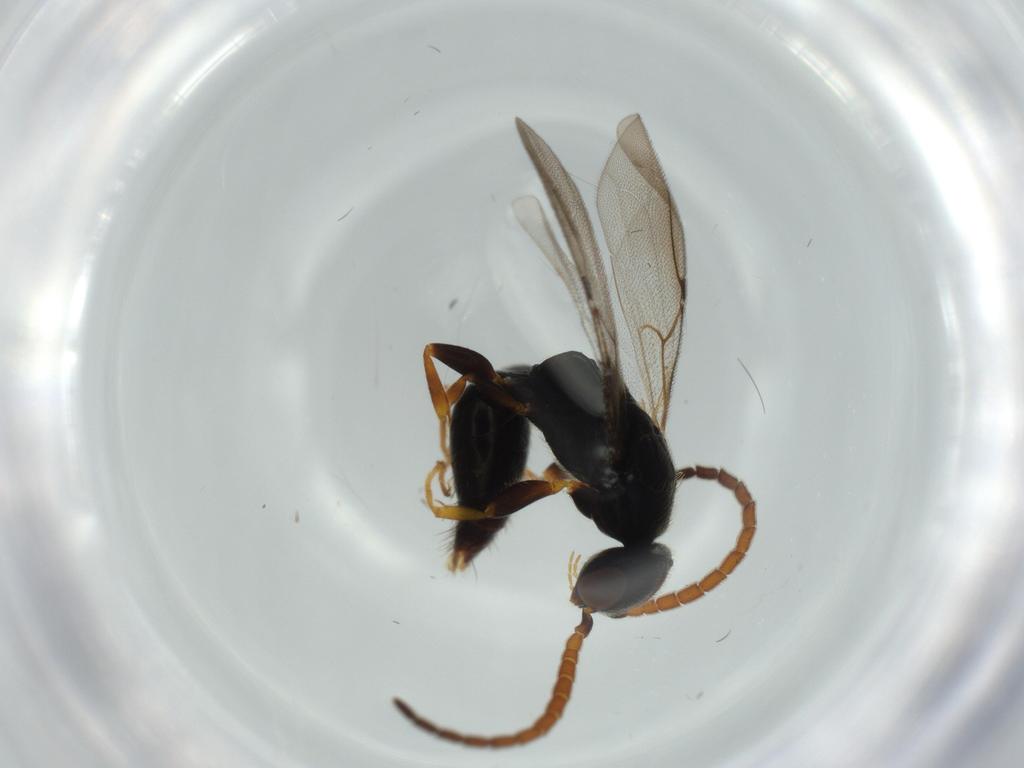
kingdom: Animalia
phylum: Arthropoda
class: Insecta
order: Hymenoptera
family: Bethylidae
